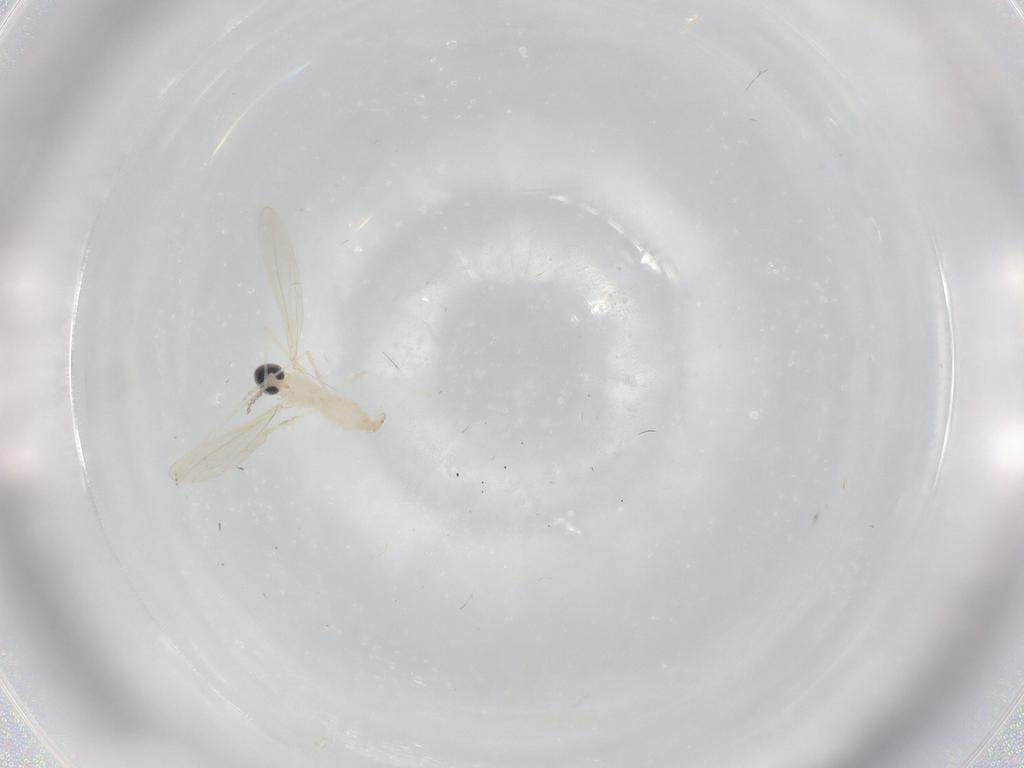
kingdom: Animalia
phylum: Arthropoda
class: Insecta
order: Diptera
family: Cecidomyiidae
